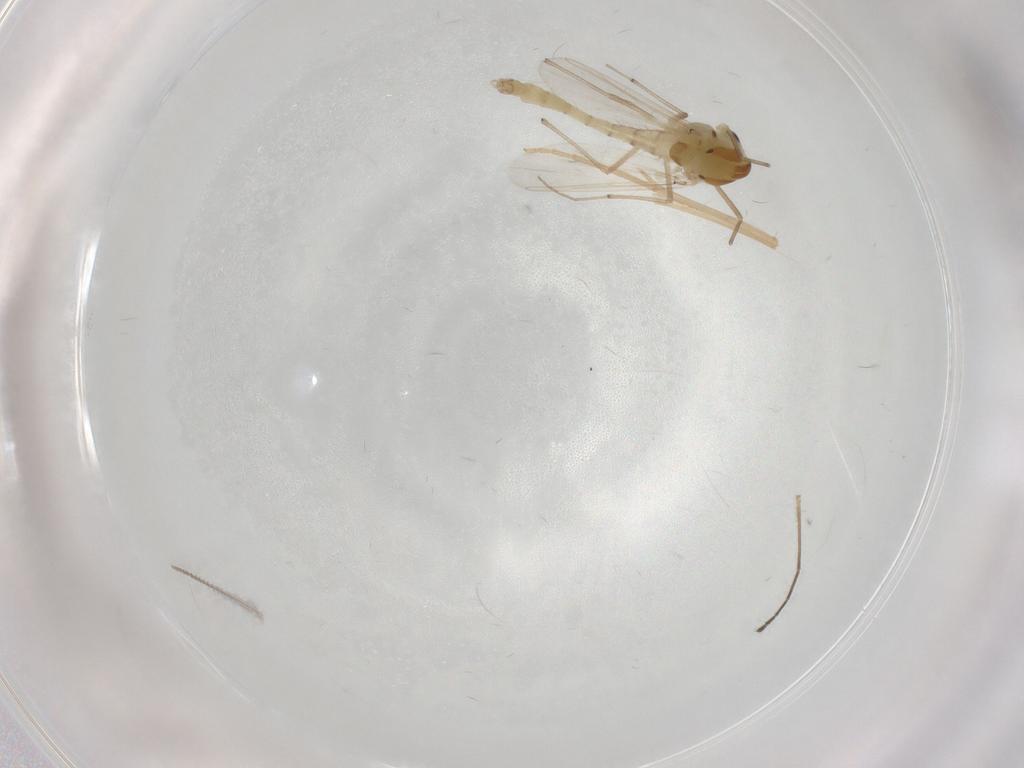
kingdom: Animalia
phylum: Arthropoda
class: Insecta
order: Diptera
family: Chironomidae
